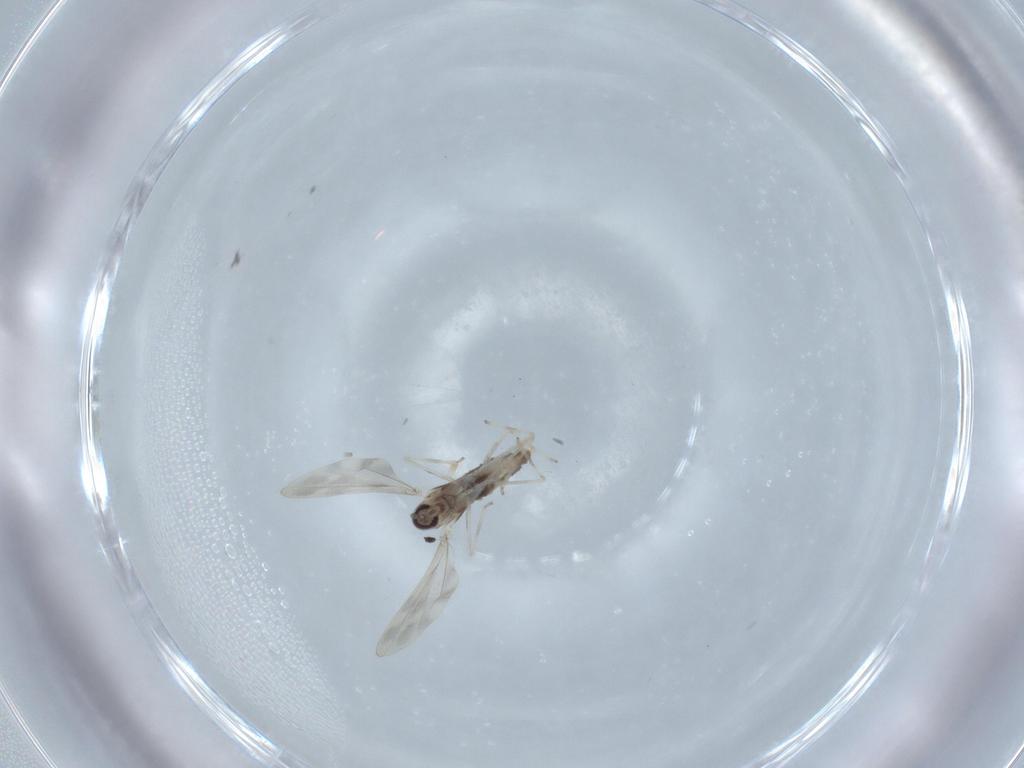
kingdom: Animalia
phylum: Arthropoda
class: Insecta
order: Diptera
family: Cecidomyiidae
